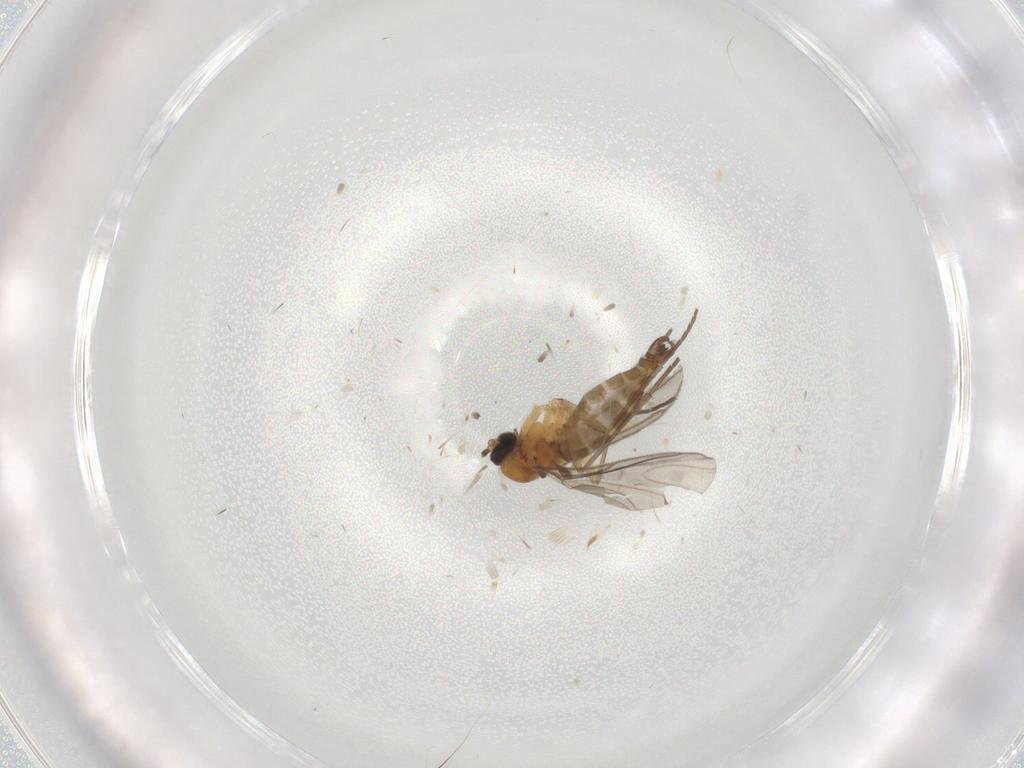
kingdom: Animalia
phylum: Arthropoda
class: Insecta
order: Diptera
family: Sciaridae
